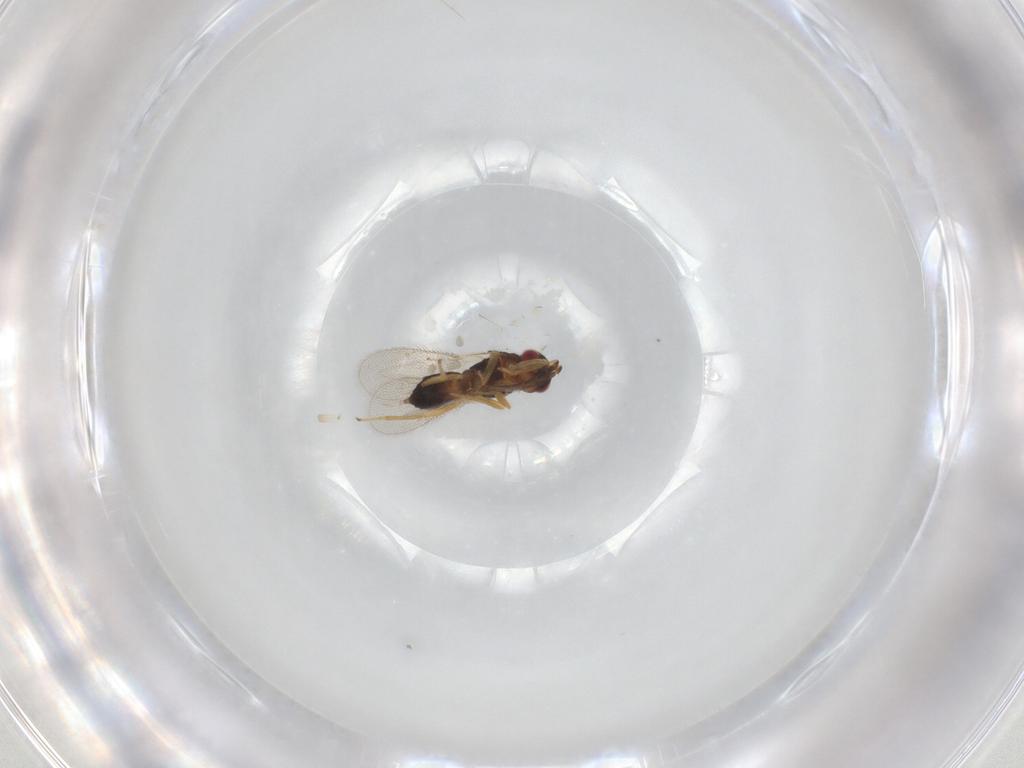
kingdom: Animalia
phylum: Arthropoda
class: Insecta
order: Hymenoptera
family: Eulophidae
